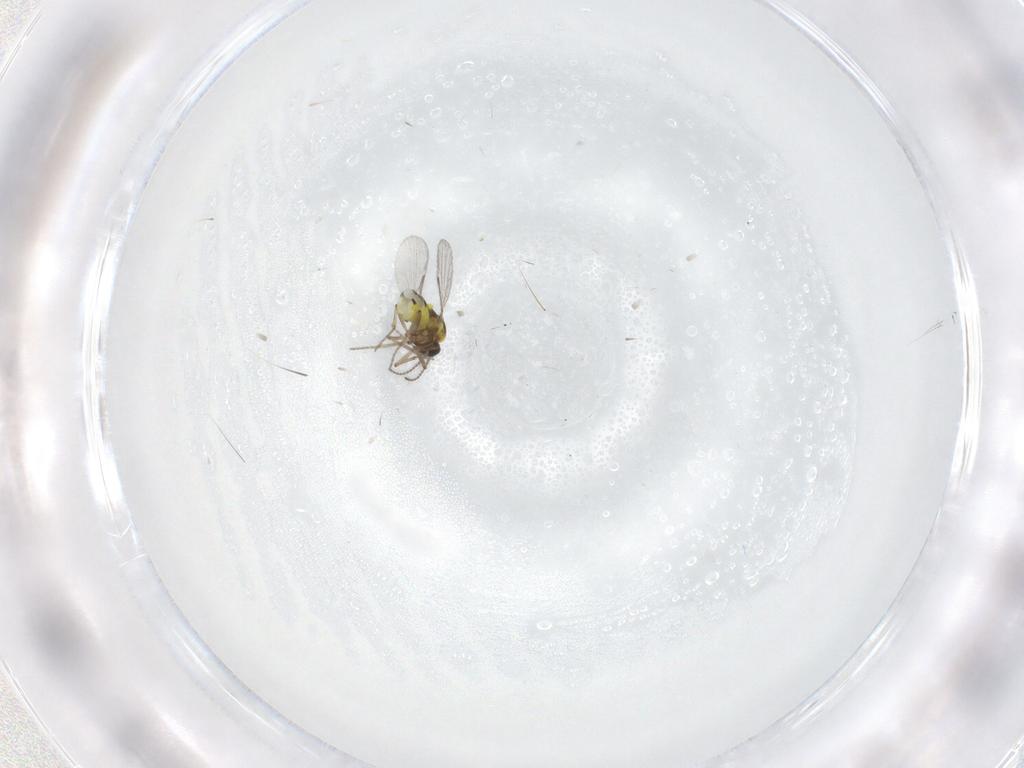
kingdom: Animalia
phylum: Arthropoda
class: Insecta
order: Diptera
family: Ceratopogonidae
